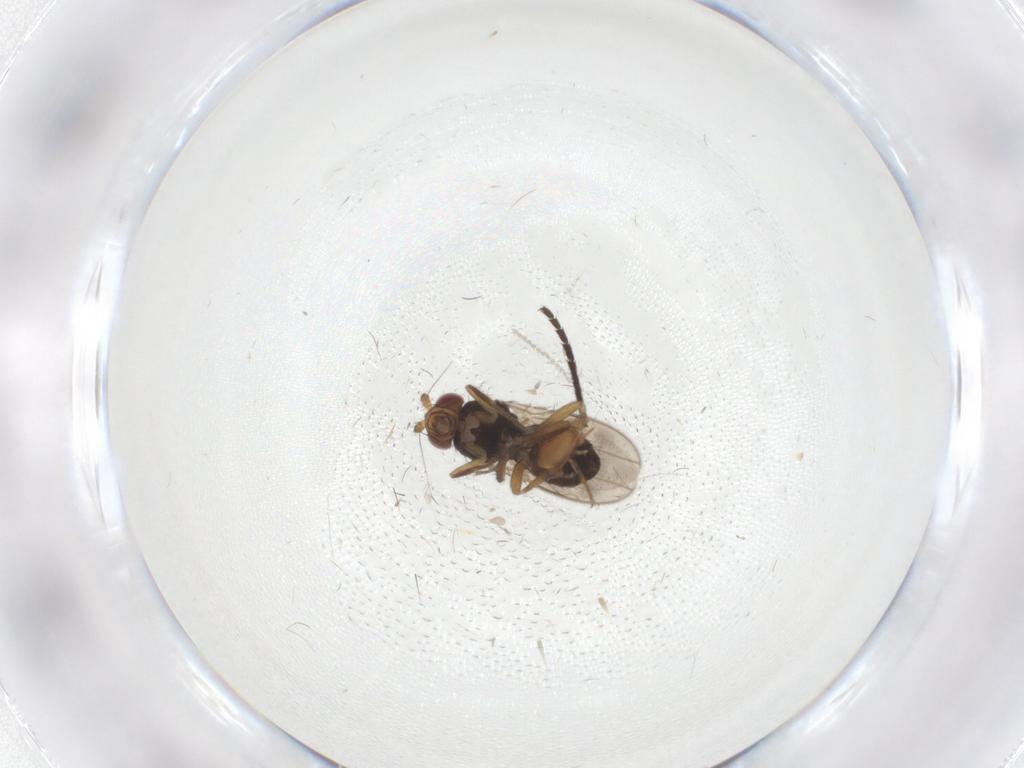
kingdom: Animalia
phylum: Arthropoda
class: Insecta
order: Diptera
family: Sphaeroceridae
